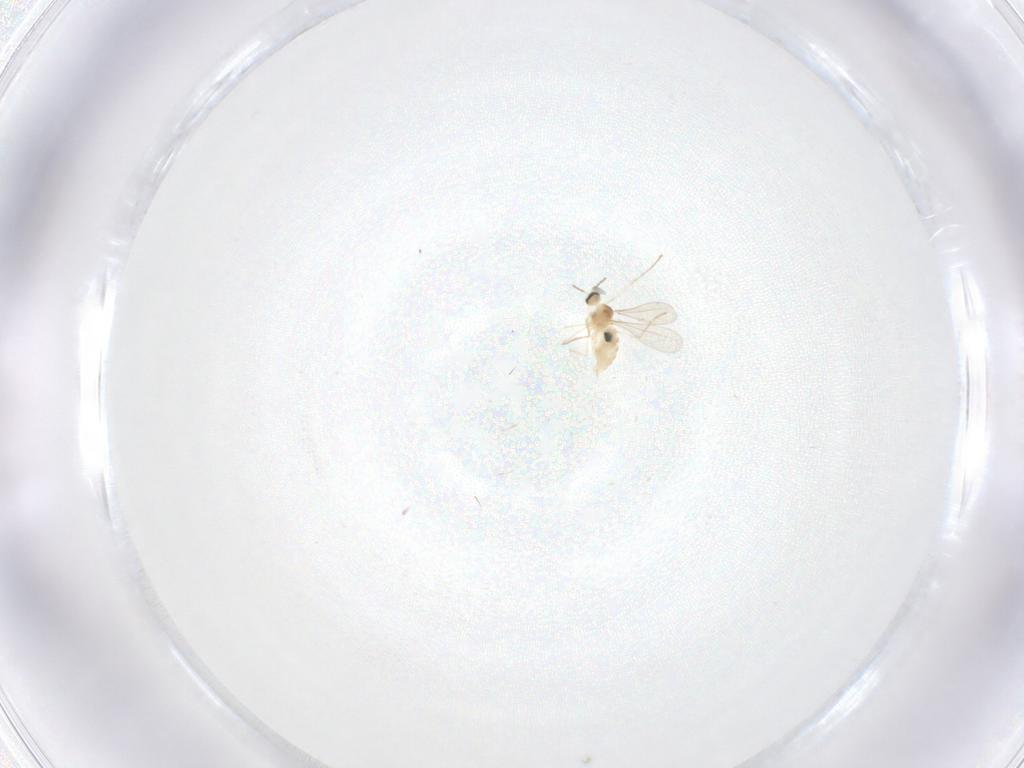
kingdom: Animalia
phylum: Arthropoda
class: Insecta
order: Diptera
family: Cecidomyiidae
